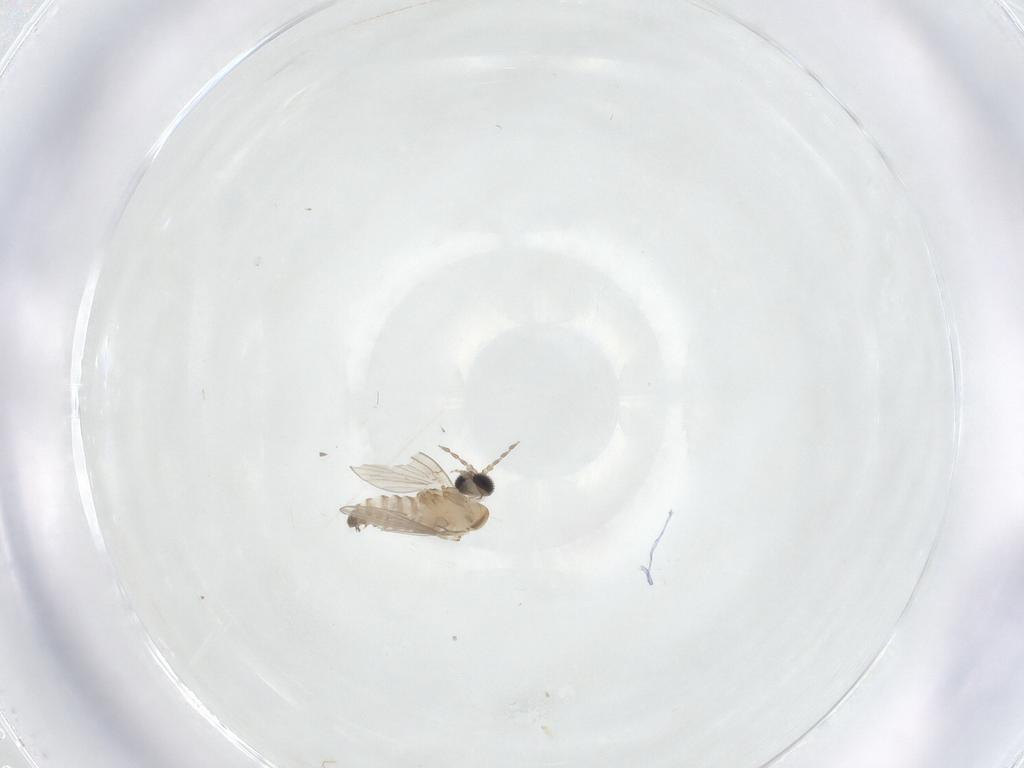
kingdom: Animalia
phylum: Arthropoda
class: Insecta
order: Diptera
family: Psychodidae
